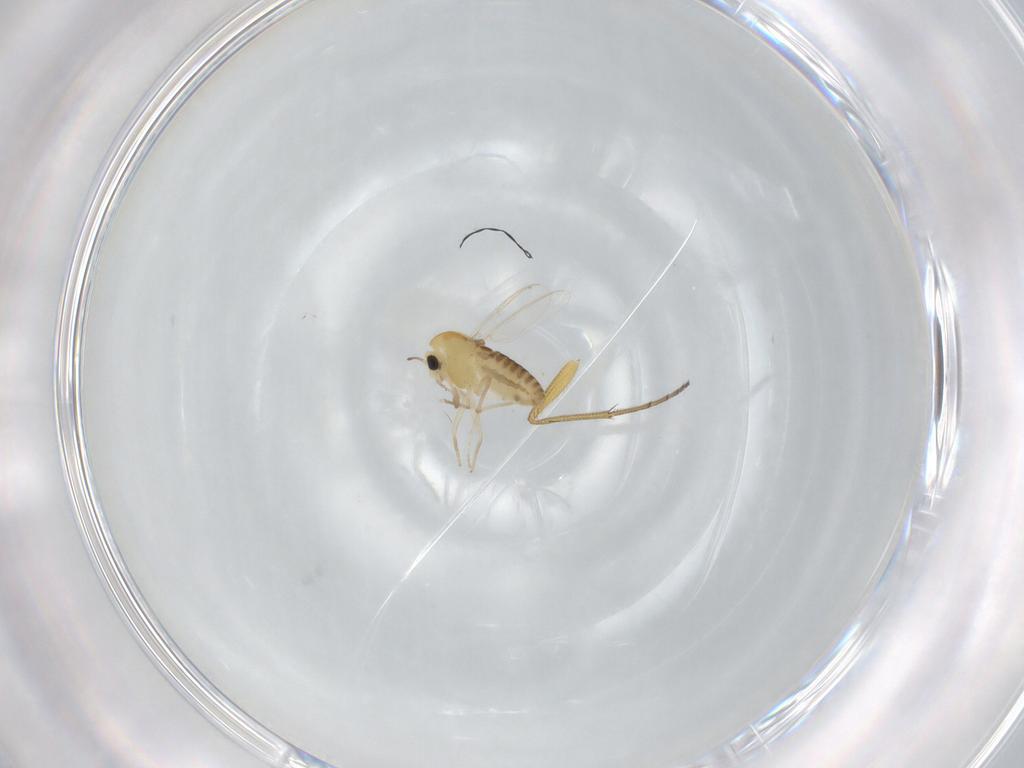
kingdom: Animalia
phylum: Arthropoda
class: Insecta
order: Diptera
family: Chironomidae
